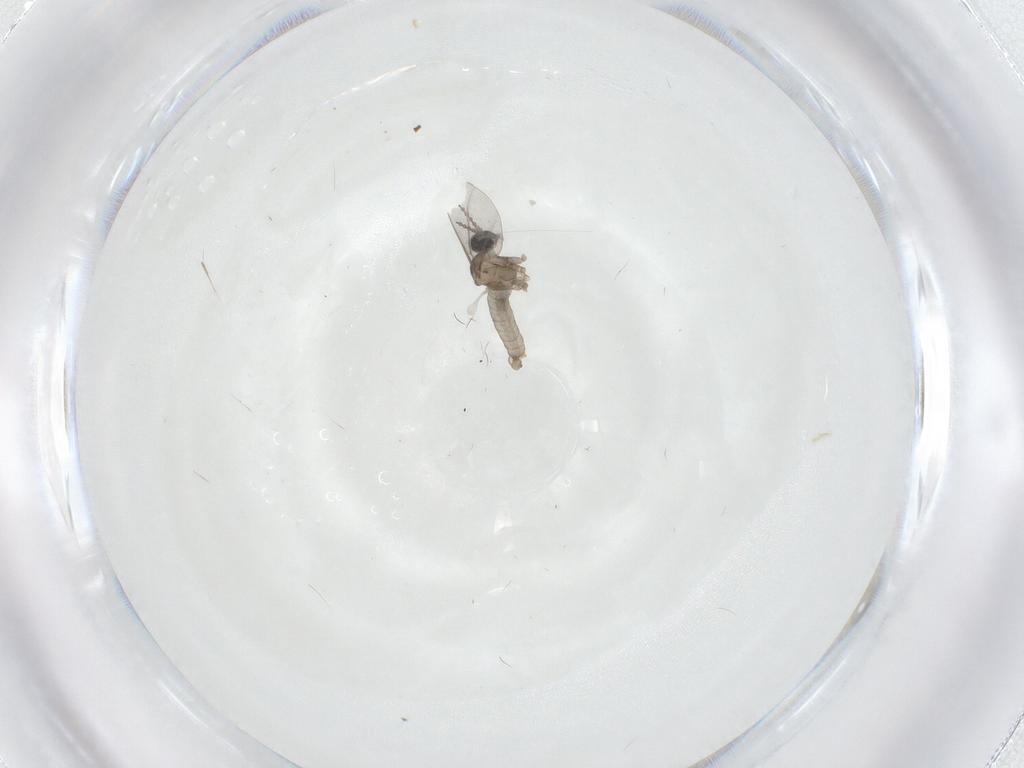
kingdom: Animalia
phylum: Arthropoda
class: Insecta
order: Diptera
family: Cecidomyiidae
